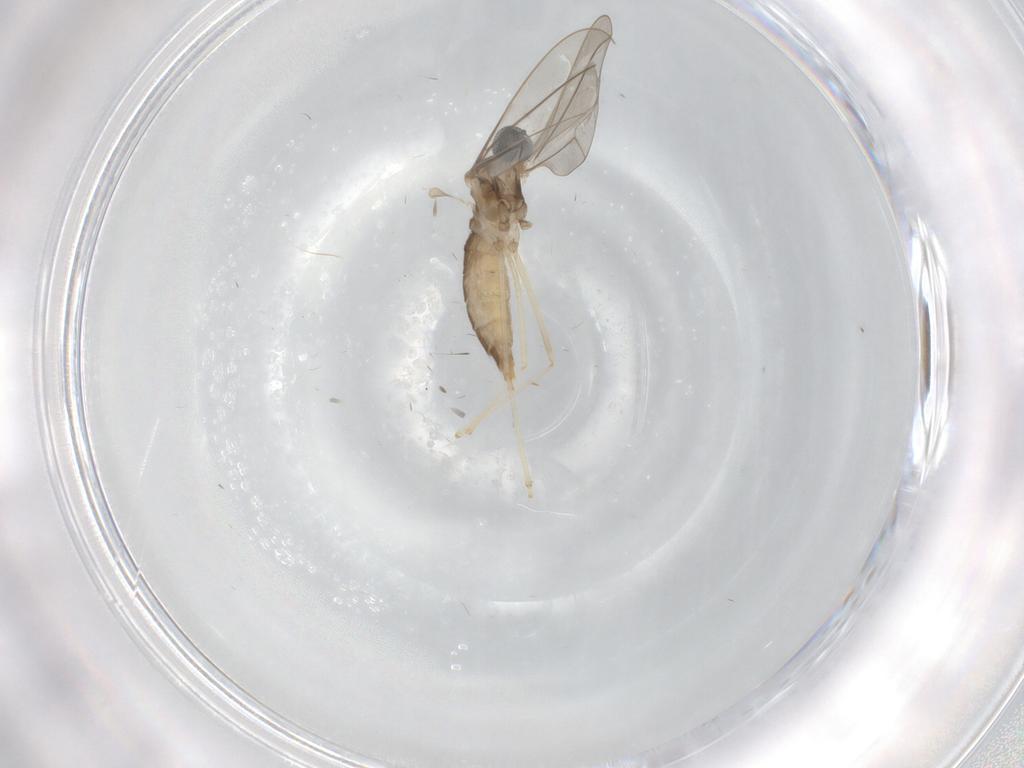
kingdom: Animalia
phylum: Arthropoda
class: Insecta
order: Diptera
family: Cecidomyiidae
